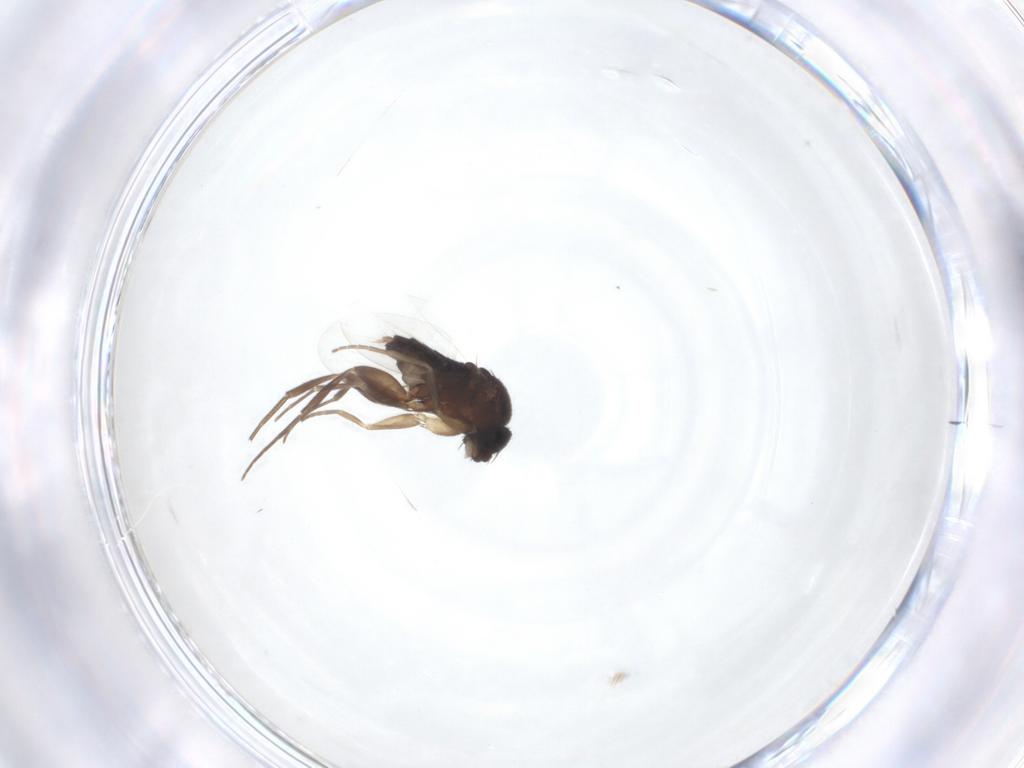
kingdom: Animalia
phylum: Arthropoda
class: Insecta
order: Diptera
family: Phoridae
